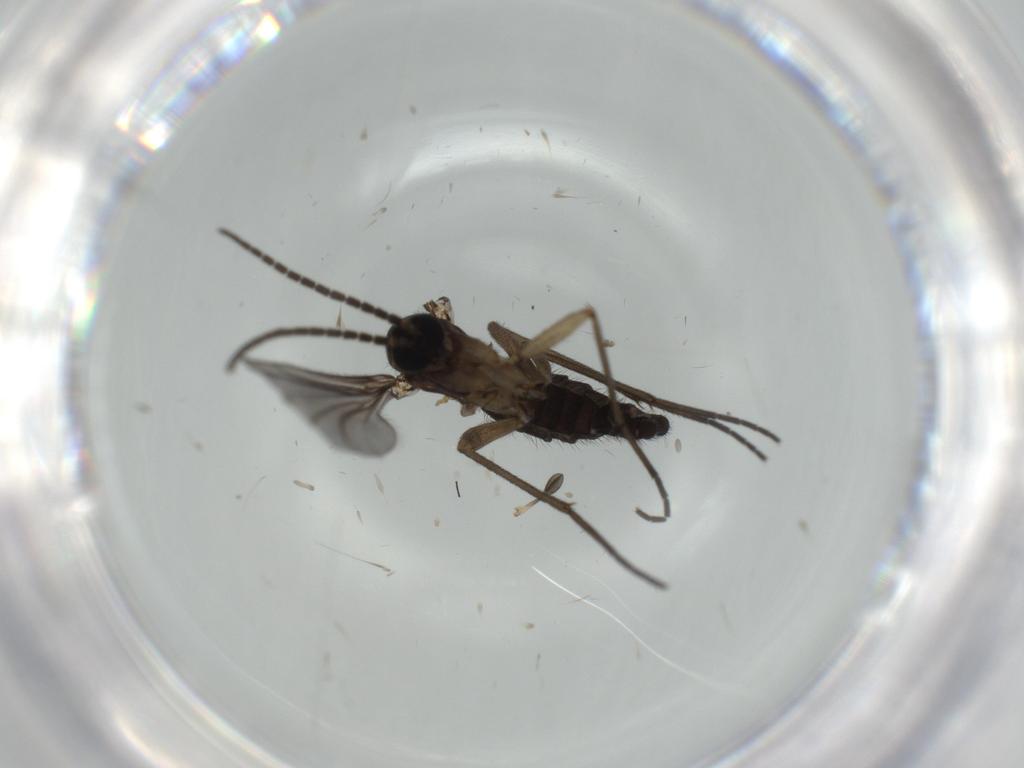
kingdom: Animalia
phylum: Arthropoda
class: Insecta
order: Diptera
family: Sciaridae
